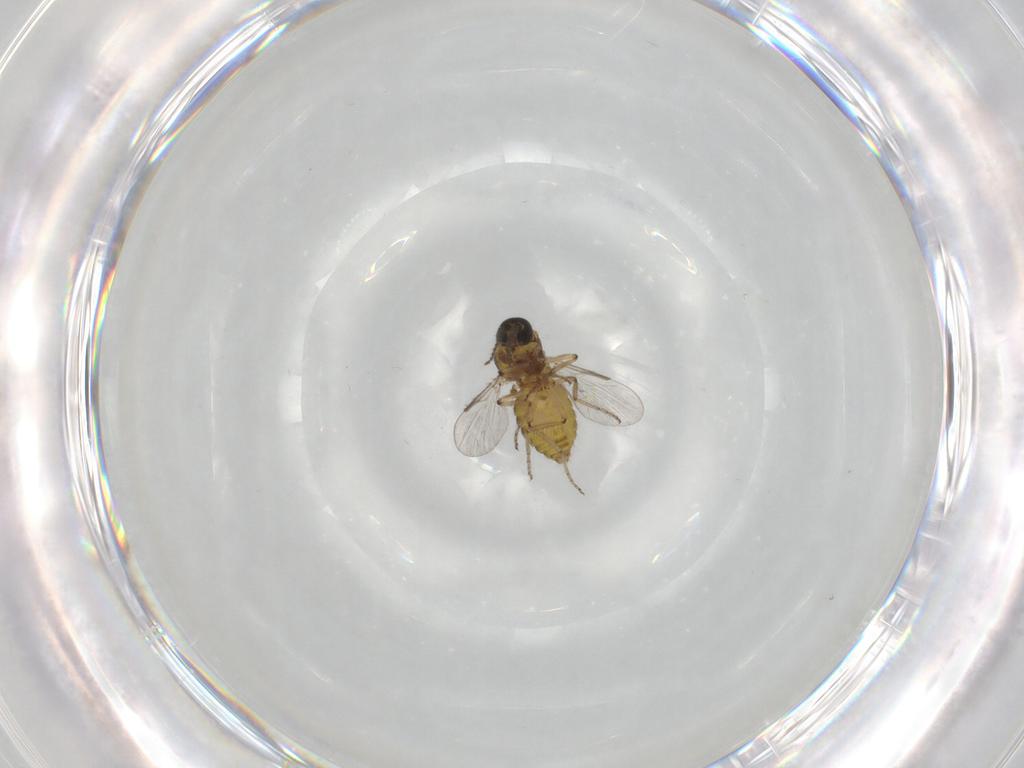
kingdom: Animalia
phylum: Arthropoda
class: Insecta
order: Diptera
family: Ceratopogonidae
